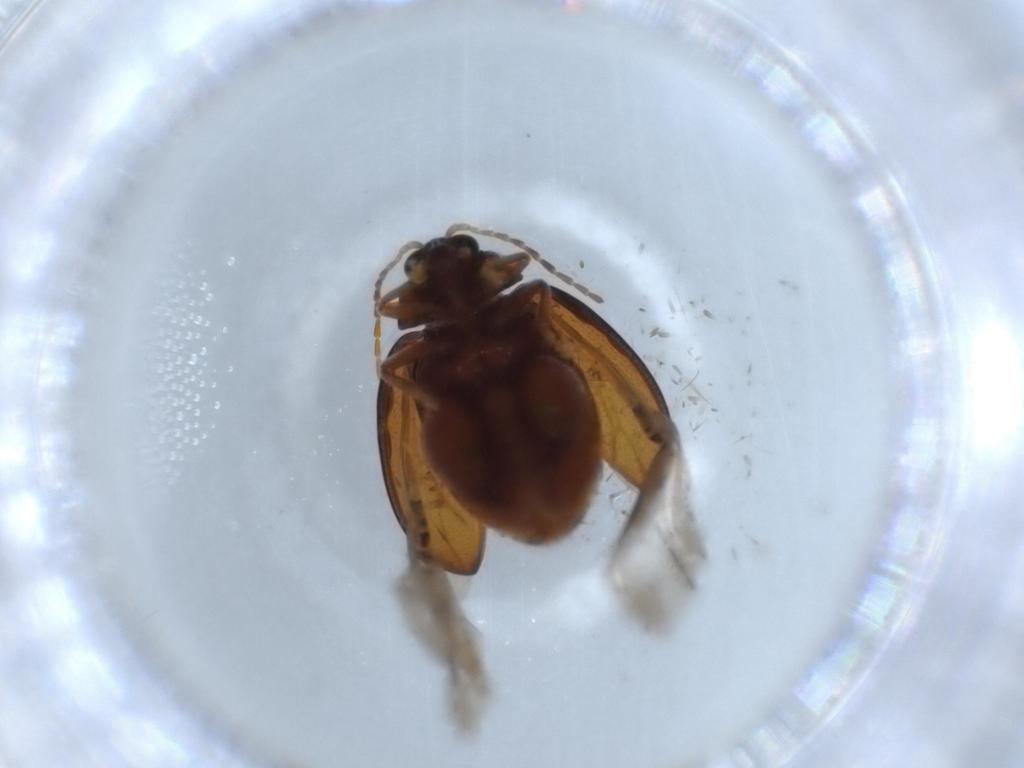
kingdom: Animalia
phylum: Arthropoda
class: Insecta
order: Coleoptera
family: Chrysomelidae
